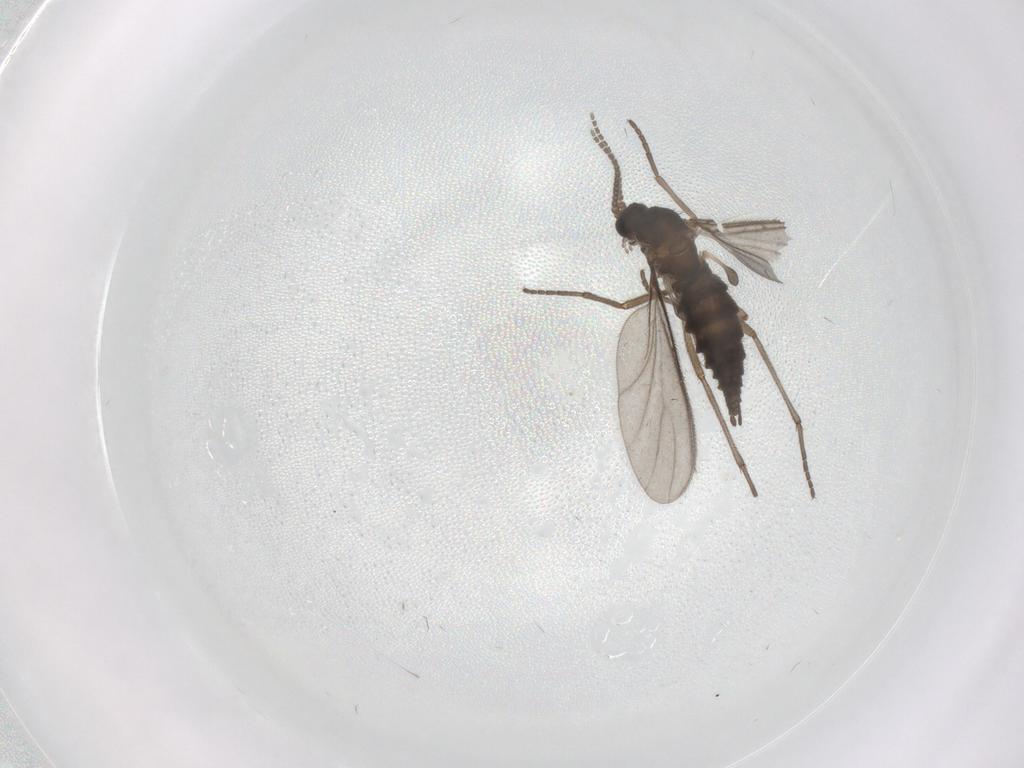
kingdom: Animalia
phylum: Arthropoda
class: Insecta
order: Diptera
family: Sciaridae
